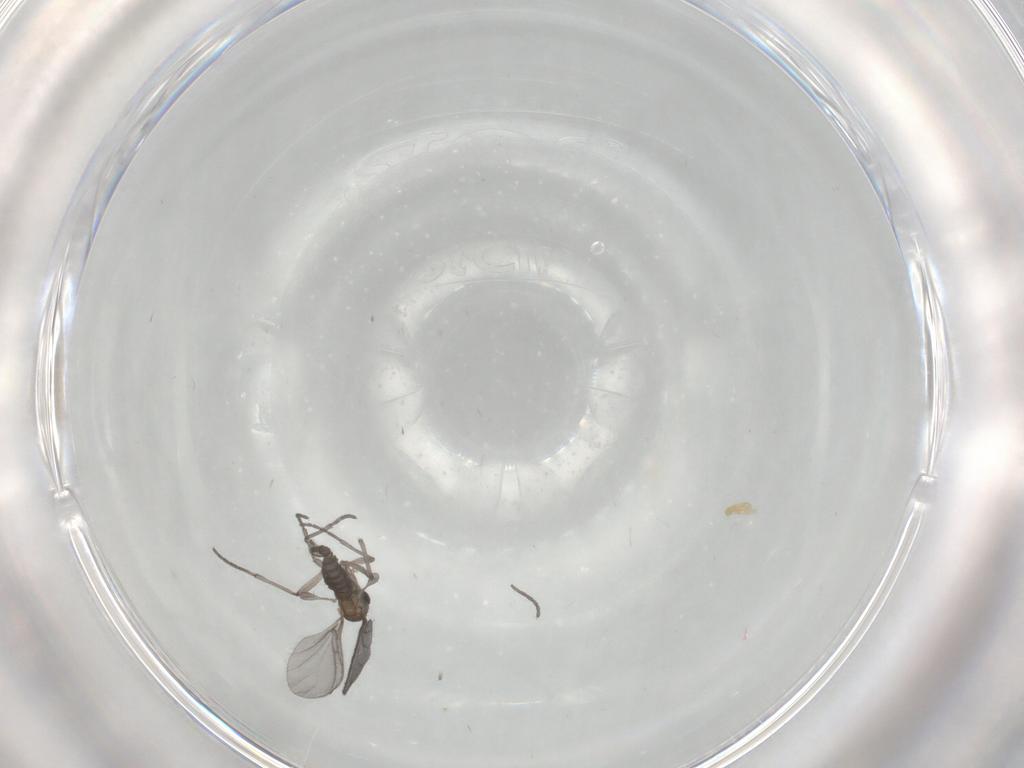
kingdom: Animalia
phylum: Arthropoda
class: Insecta
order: Diptera
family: Sciaridae
